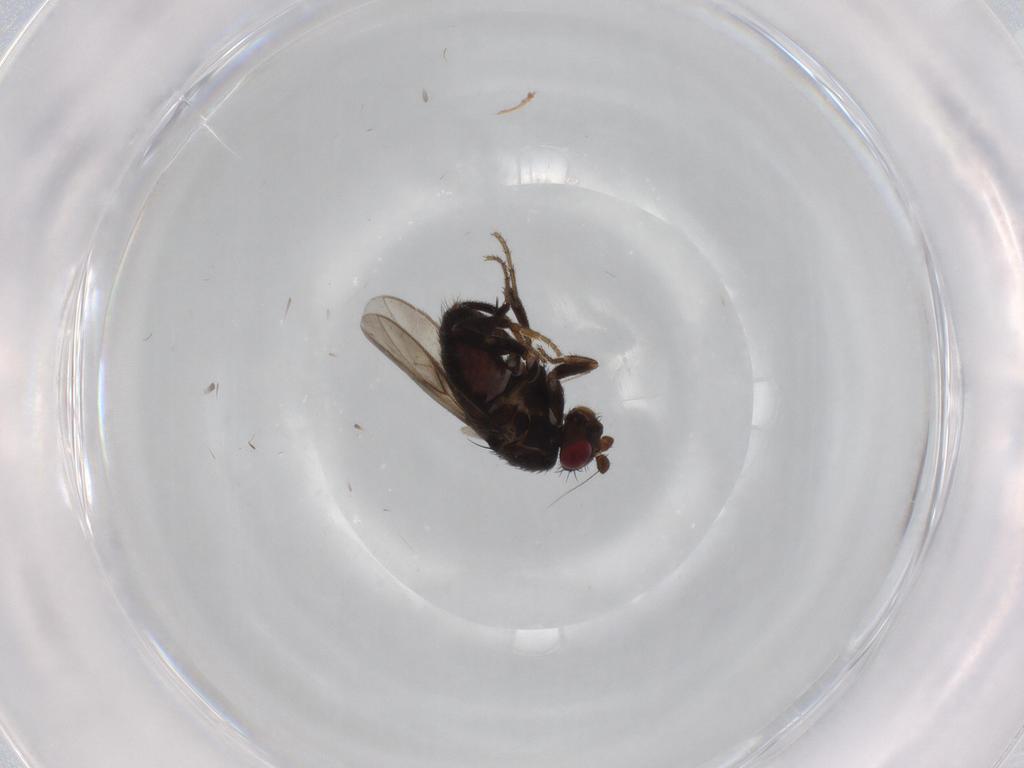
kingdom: Animalia
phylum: Arthropoda
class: Insecta
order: Diptera
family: Sphaeroceridae
